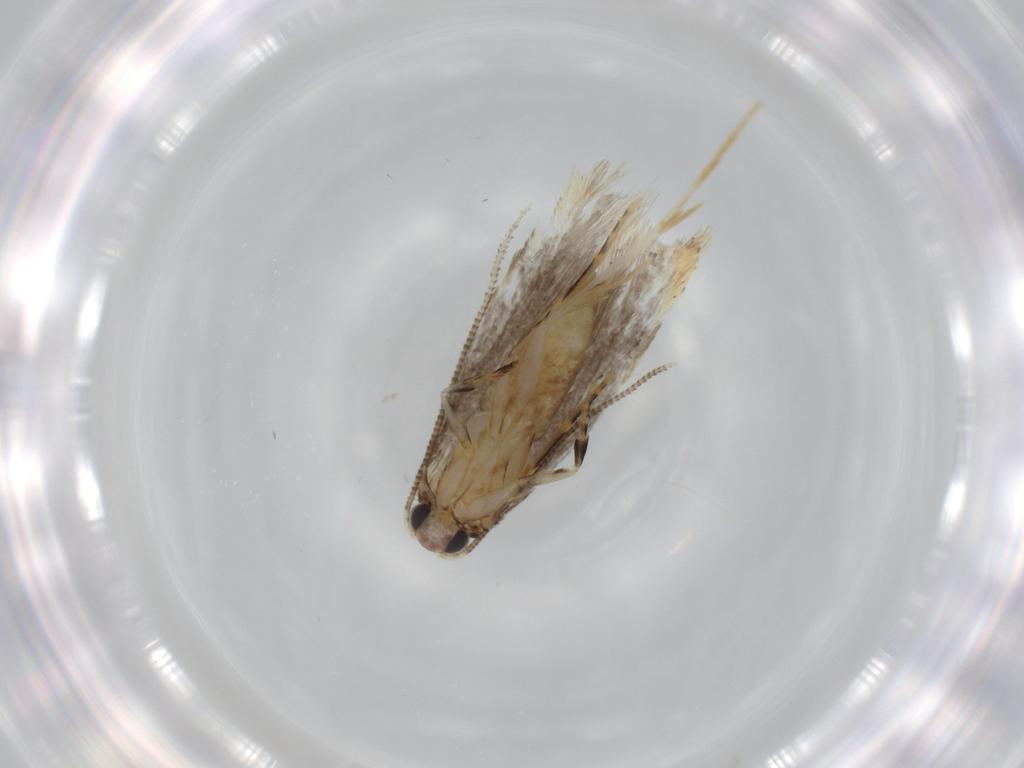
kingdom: Animalia
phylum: Arthropoda
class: Insecta
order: Lepidoptera
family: Tineidae
